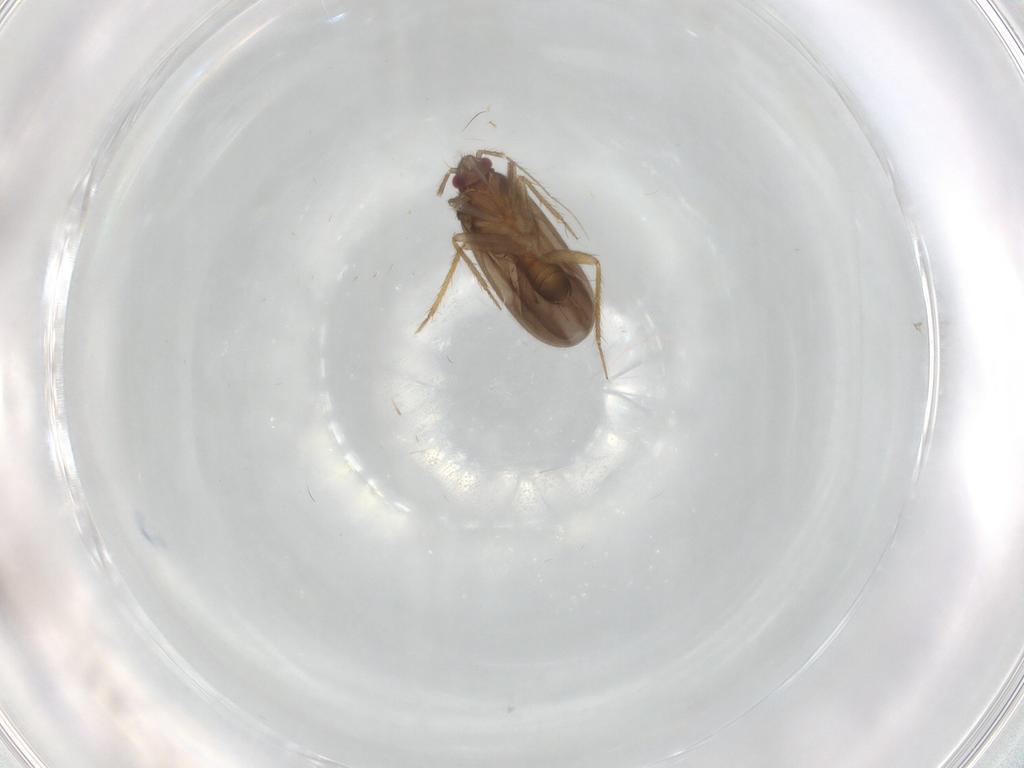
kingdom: Animalia
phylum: Arthropoda
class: Insecta
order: Hemiptera
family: Ceratocombidae
